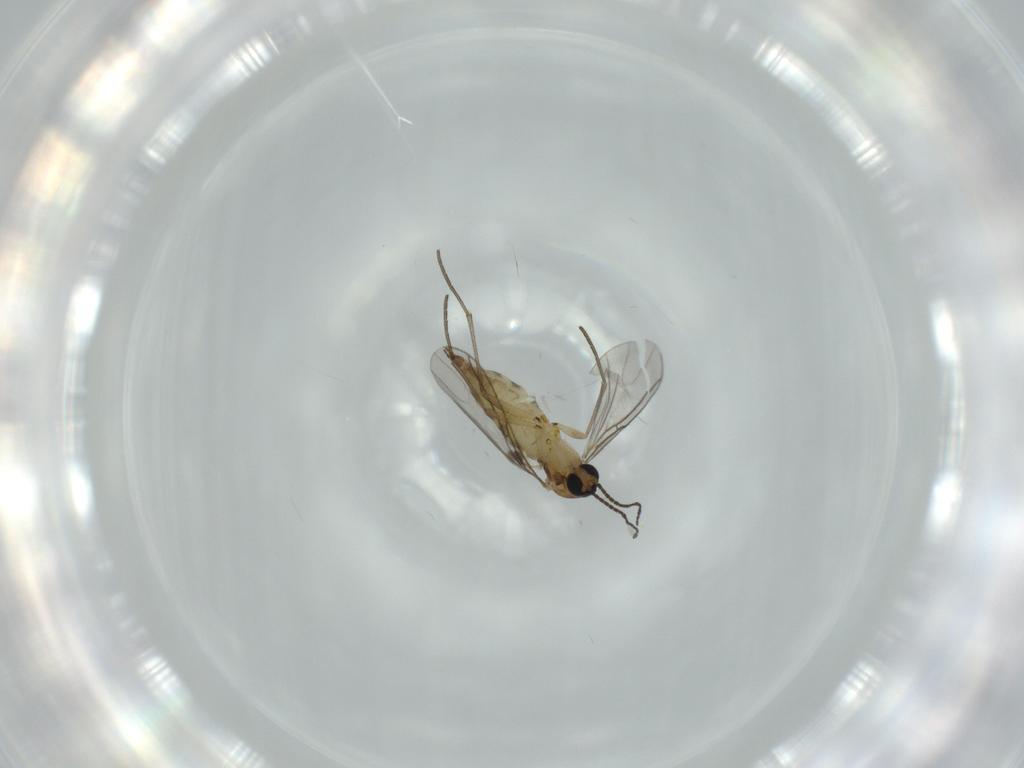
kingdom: Animalia
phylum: Arthropoda
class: Insecta
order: Diptera
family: Sciaridae
